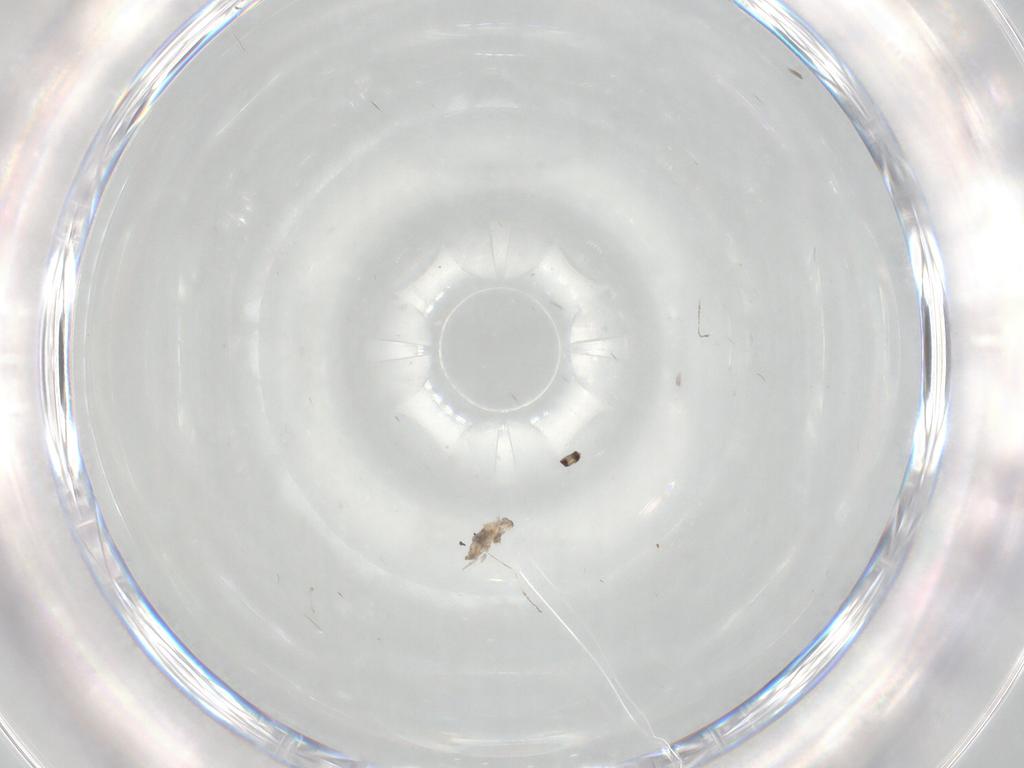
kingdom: Animalia
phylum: Arthropoda
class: Insecta
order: Diptera
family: Cecidomyiidae
